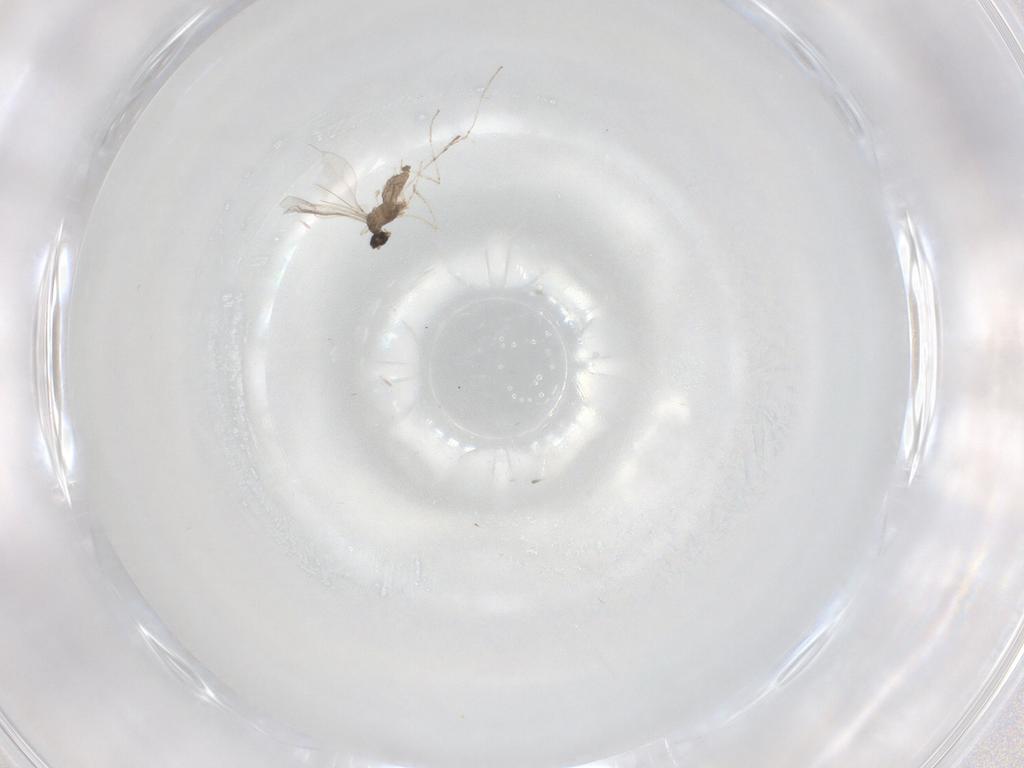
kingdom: Animalia
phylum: Arthropoda
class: Insecta
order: Diptera
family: Cecidomyiidae
